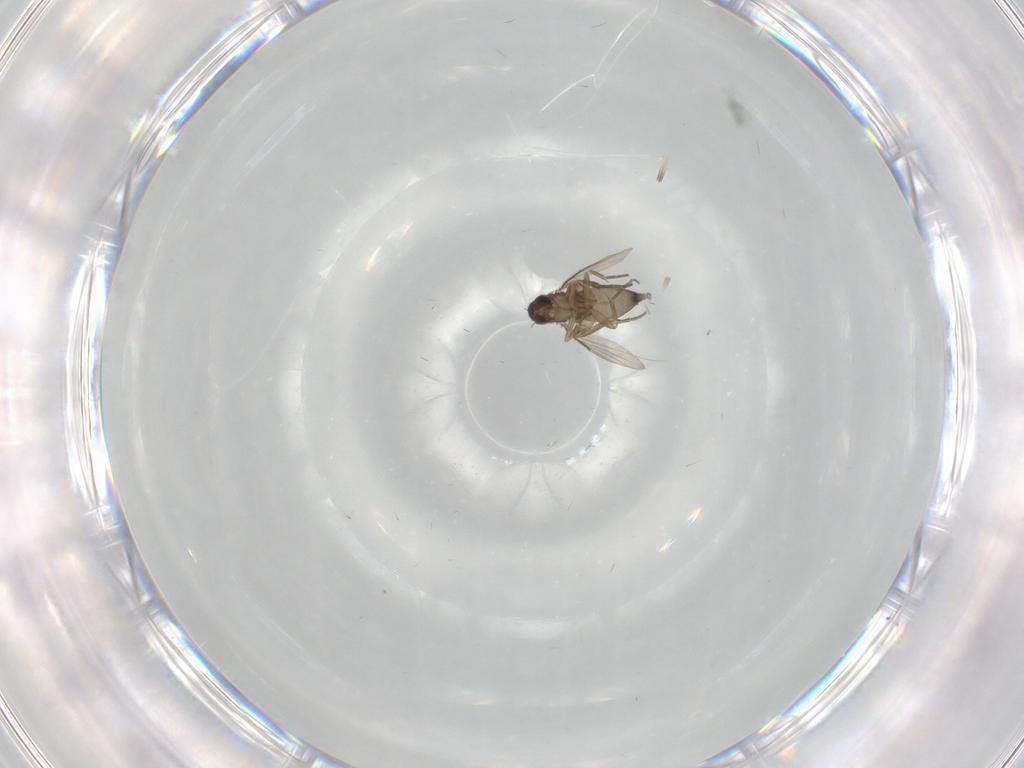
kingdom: Animalia
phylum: Arthropoda
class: Insecta
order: Diptera
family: Phoridae
